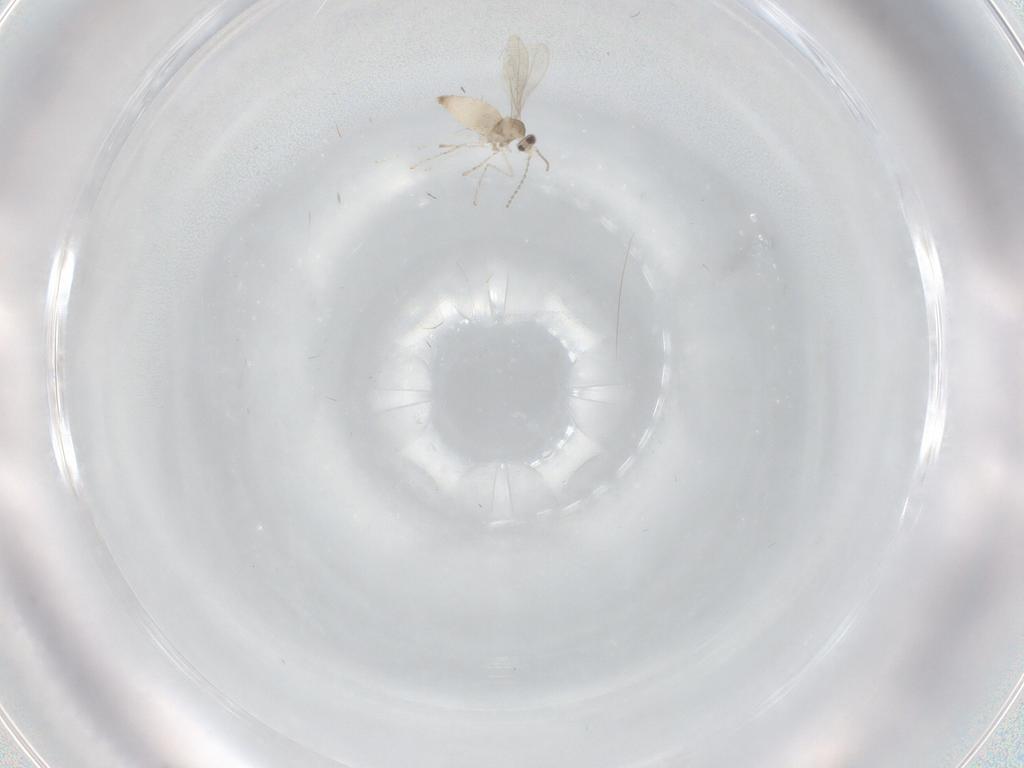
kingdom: Animalia
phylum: Arthropoda
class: Insecta
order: Diptera
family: Cecidomyiidae
